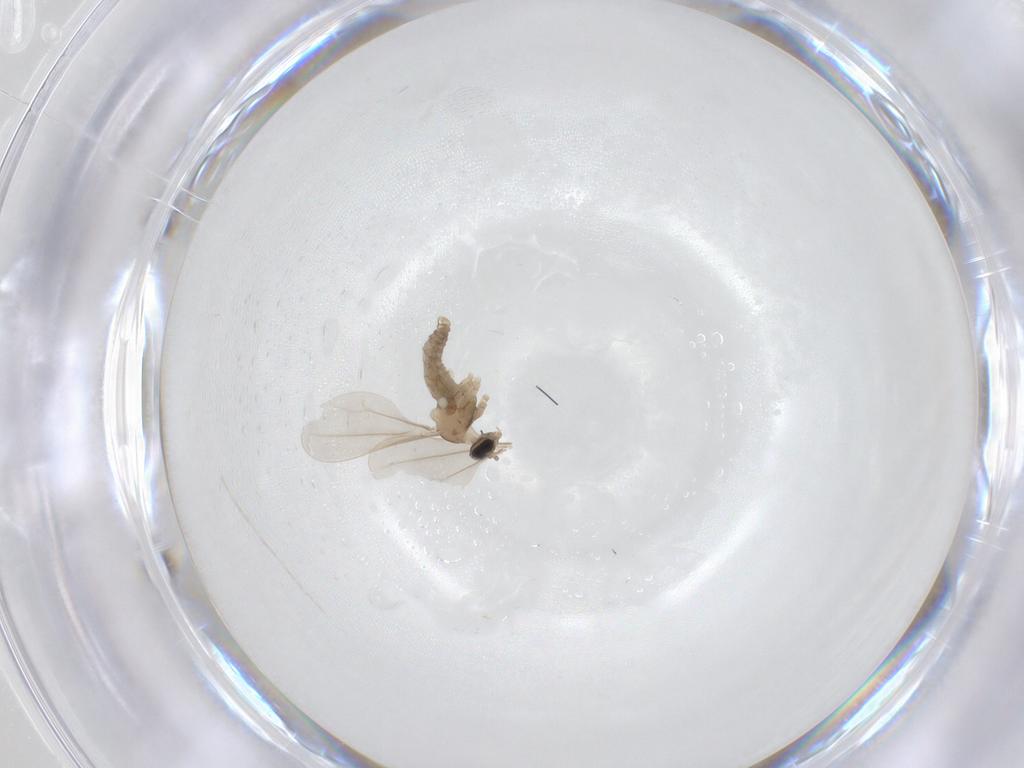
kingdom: Animalia
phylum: Arthropoda
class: Insecta
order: Diptera
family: Cecidomyiidae
